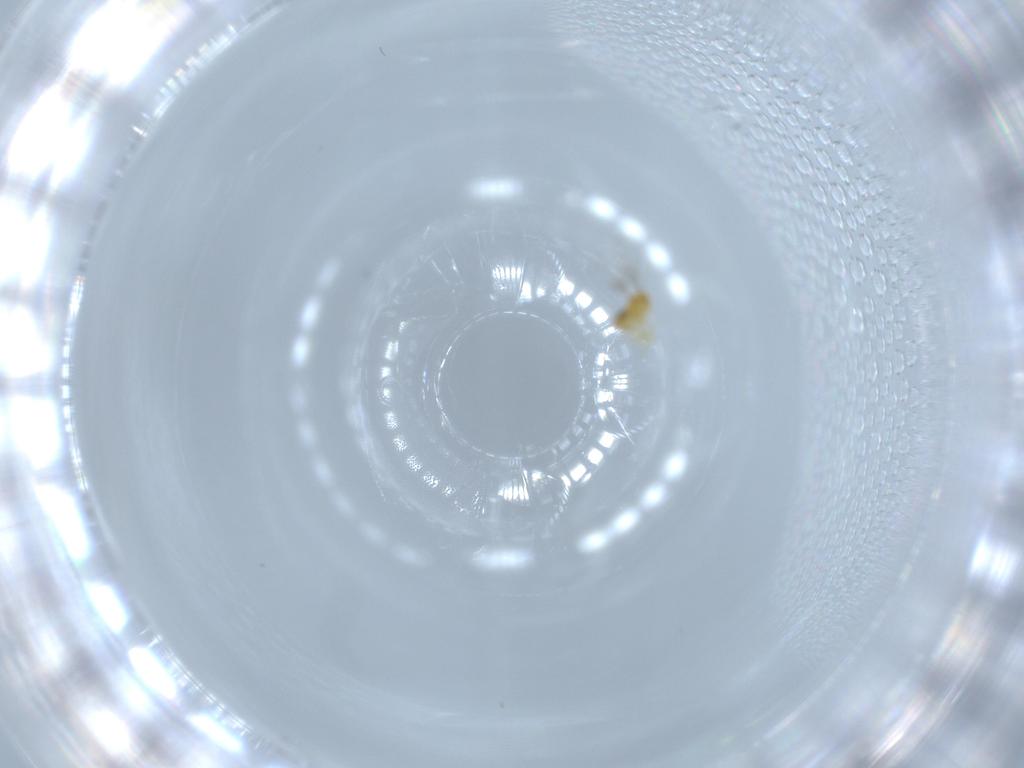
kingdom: Animalia
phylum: Arthropoda
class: Insecta
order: Hymenoptera
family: Trichogrammatidae
